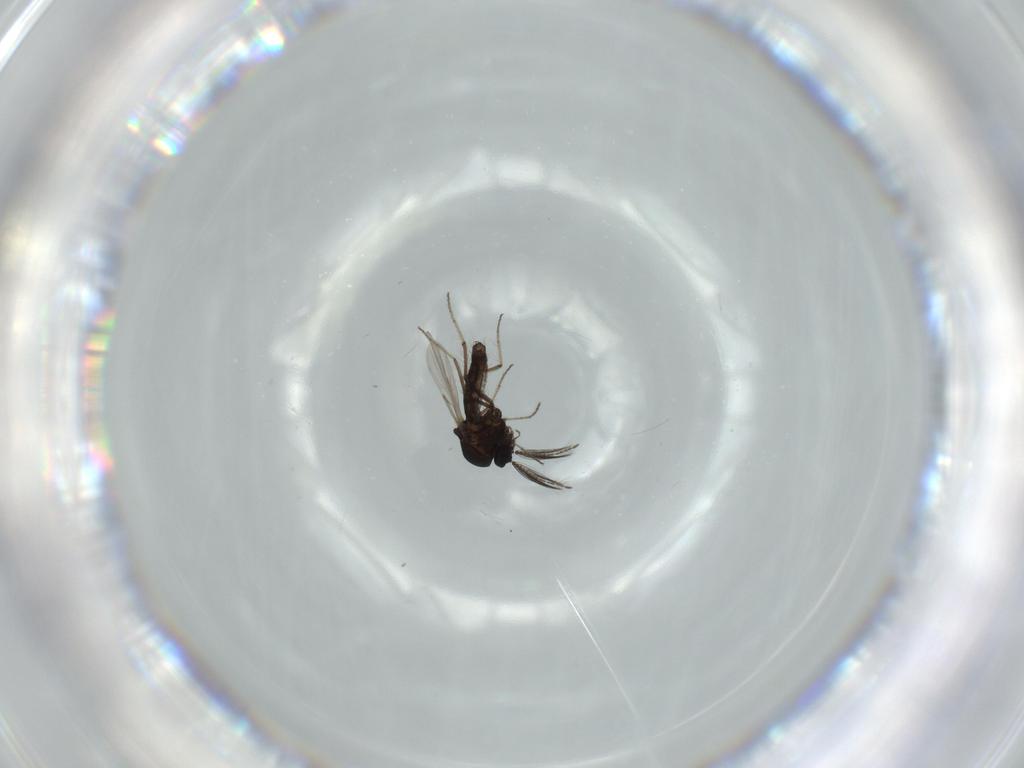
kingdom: Animalia
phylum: Arthropoda
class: Insecta
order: Diptera
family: Ceratopogonidae
